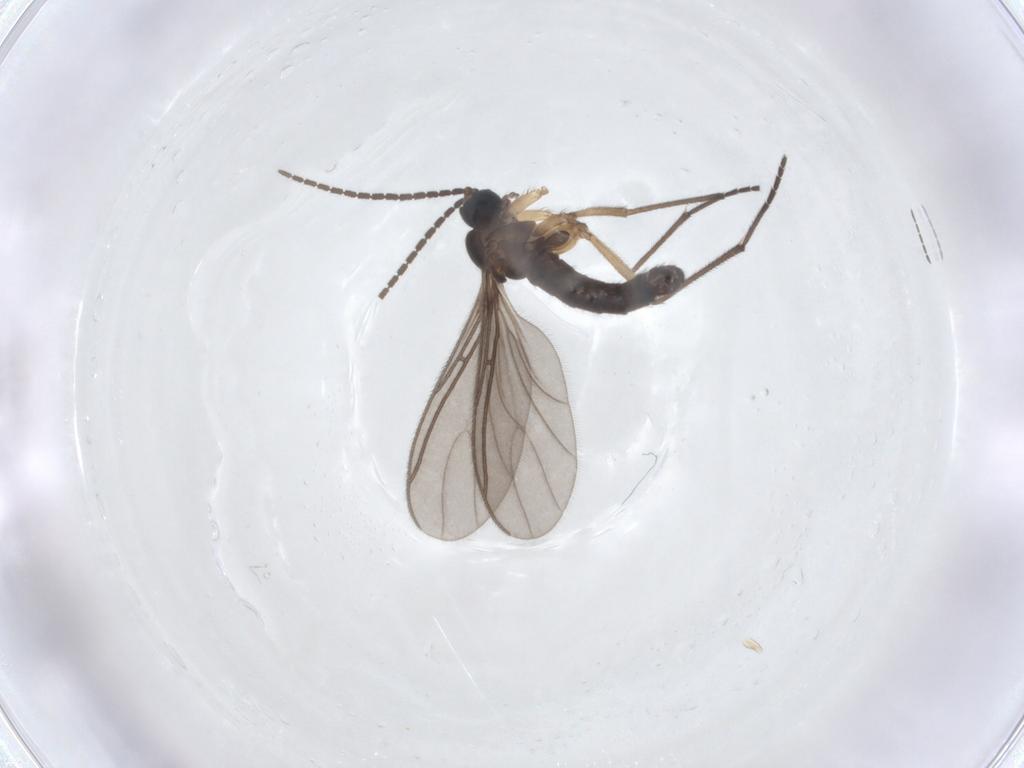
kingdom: Animalia
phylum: Arthropoda
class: Insecta
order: Diptera
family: Sciaridae
